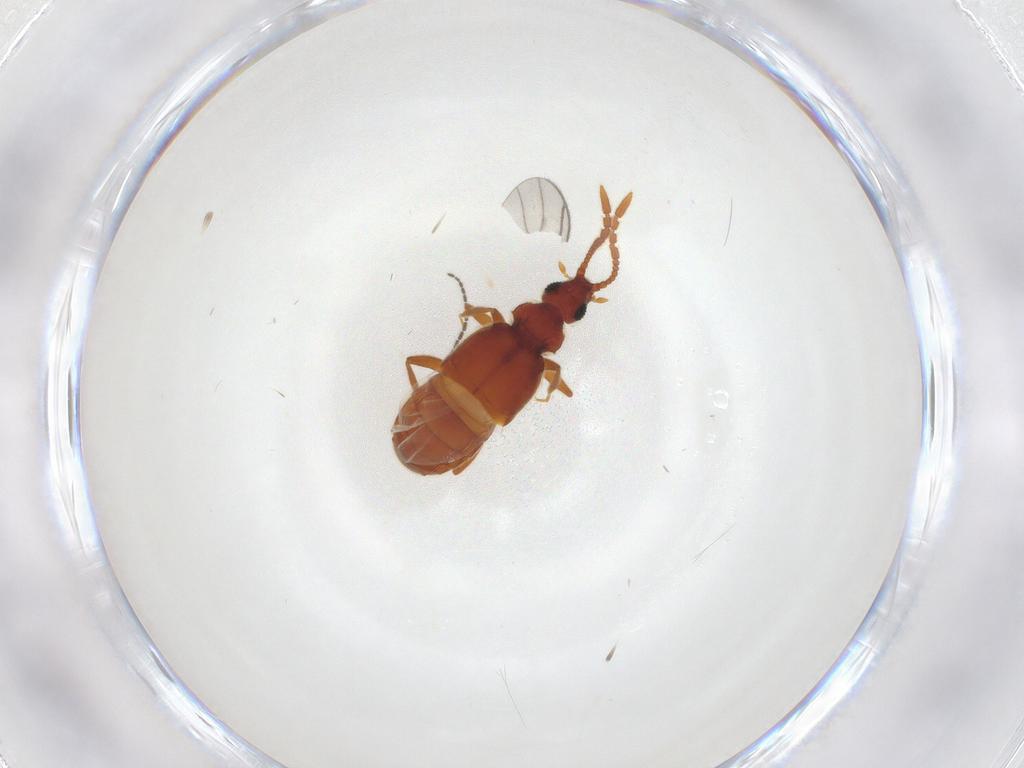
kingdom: Animalia
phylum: Arthropoda
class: Insecta
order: Coleoptera
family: Staphylinidae
